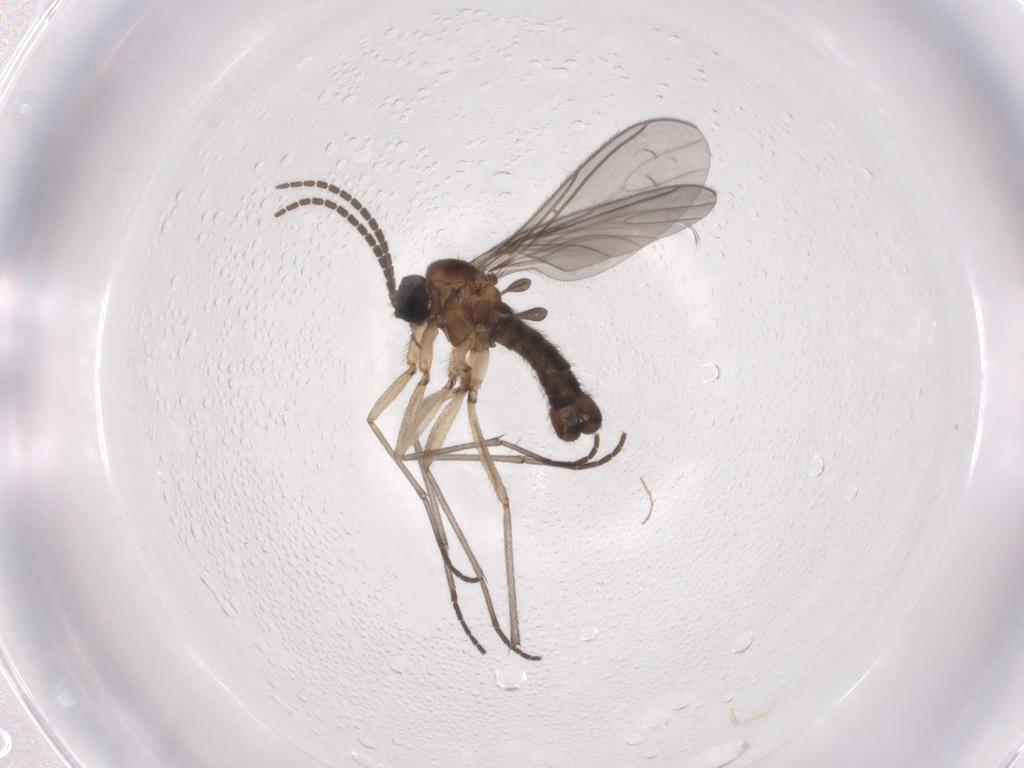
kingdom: Animalia
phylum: Arthropoda
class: Insecta
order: Diptera
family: Sciaridae
